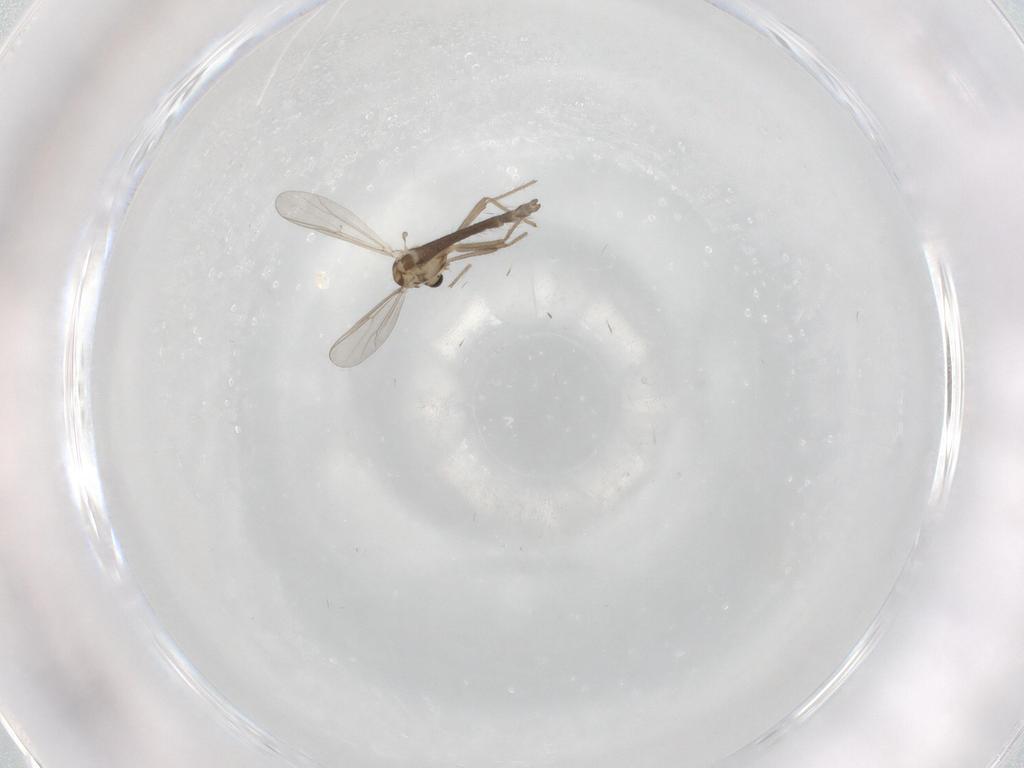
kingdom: Animalia
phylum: Arthropoda
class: Insecta
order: Diptera
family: Chironomidae
